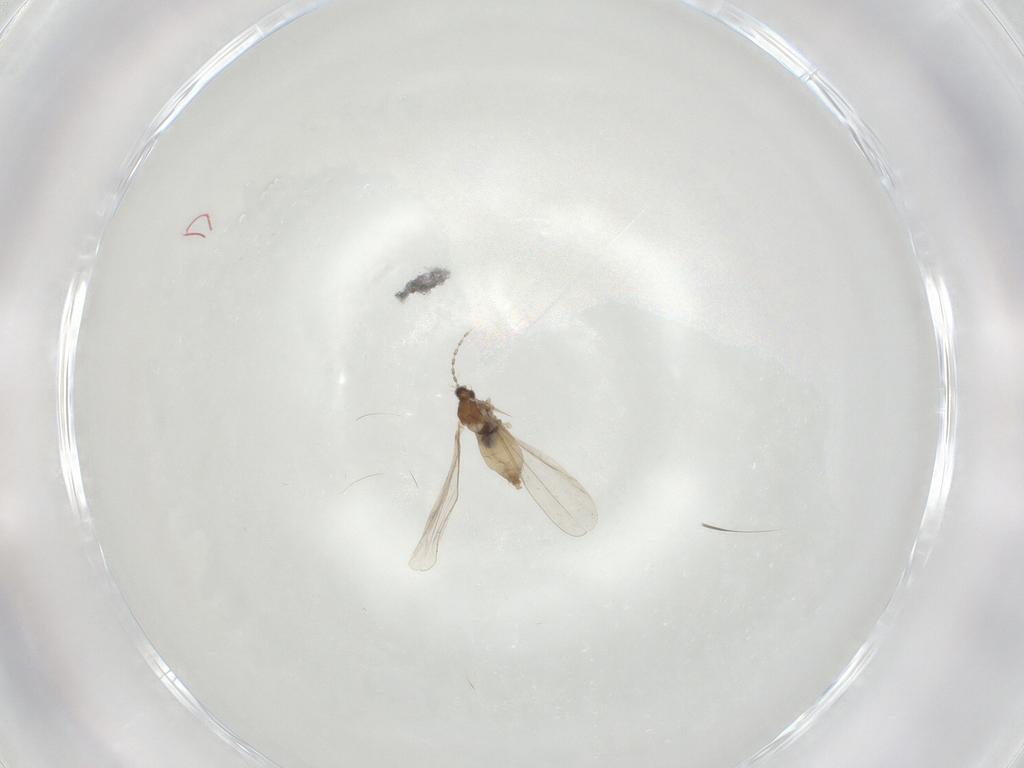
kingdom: Animalia
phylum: Arthropoda
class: Insecta
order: Diptera
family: Cecidomyiidae
